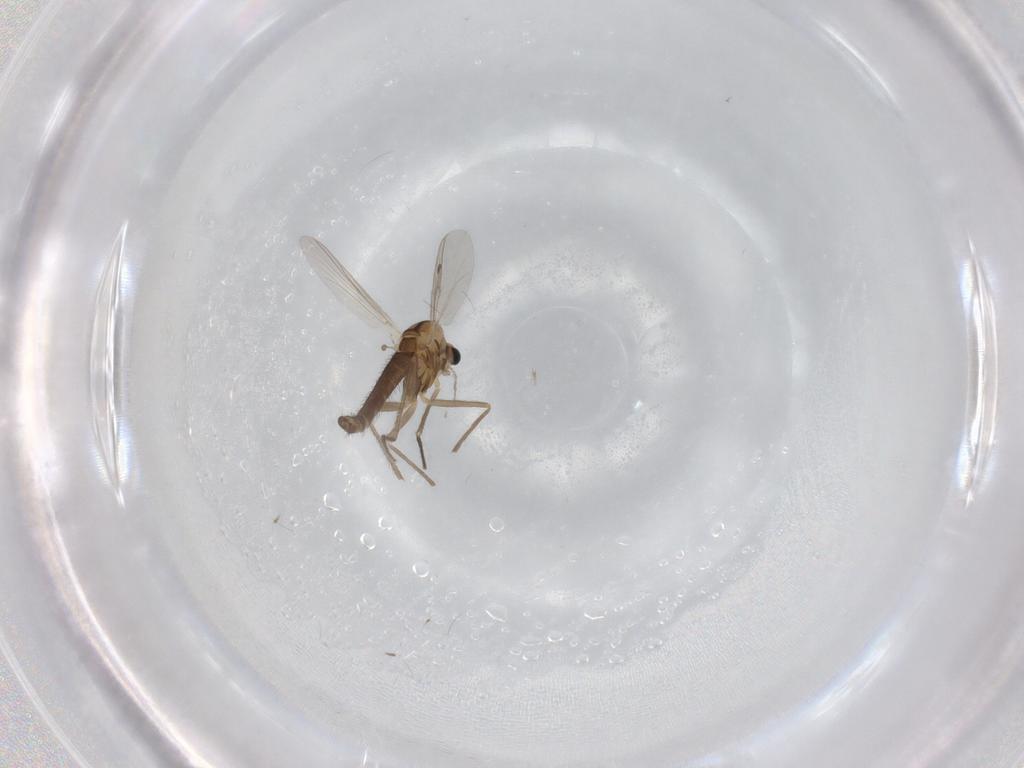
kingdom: Animalia
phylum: Arthropoda
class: Insecta
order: Diptera
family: Chironomidae
